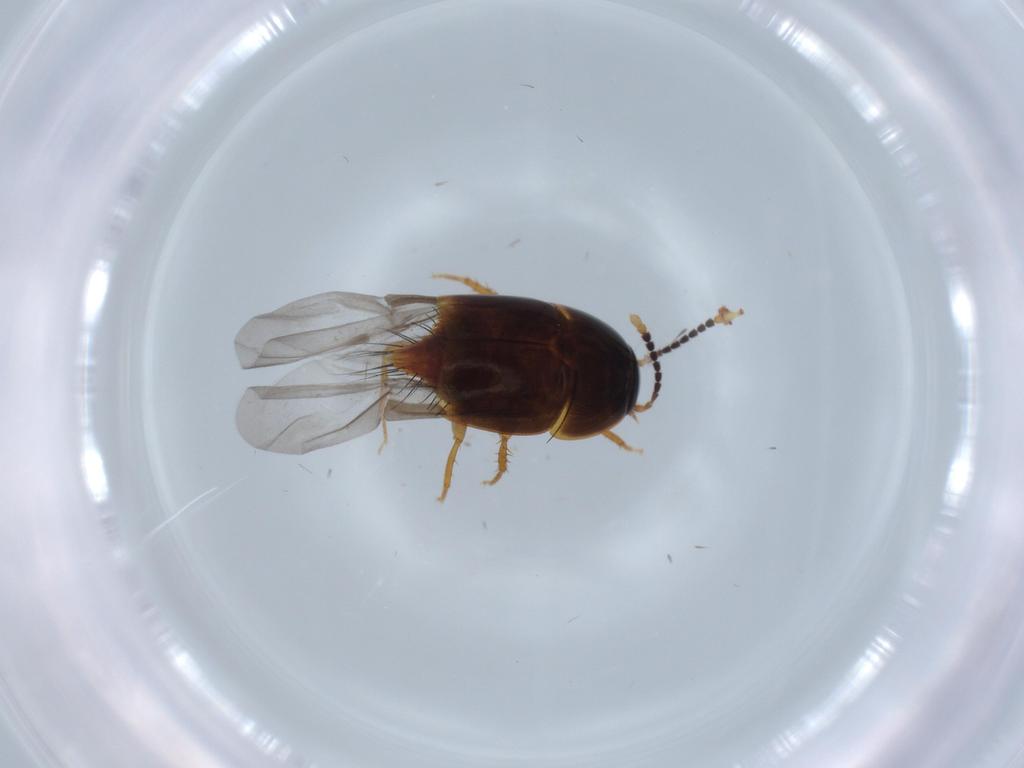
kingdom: Animalia
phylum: Arthropoda
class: Insecta
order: Coleoptera
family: Staphylinidae
